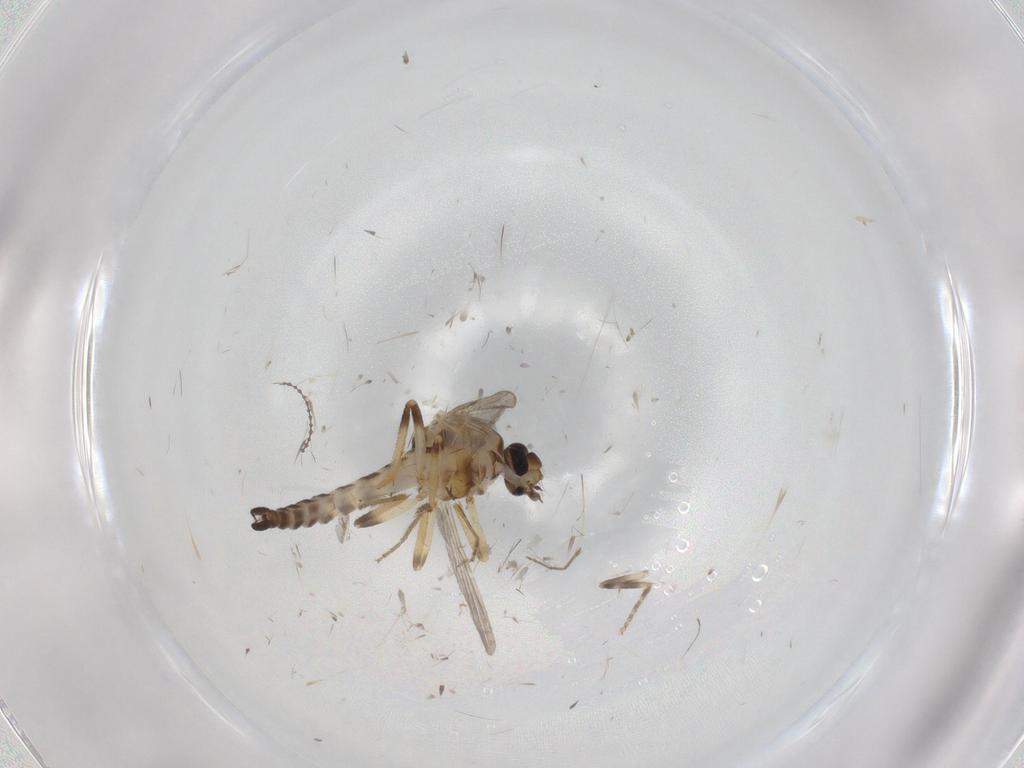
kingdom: Animalia
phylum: Arthropoda
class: Insecta
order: Diptera
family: Ceratopogonidae
